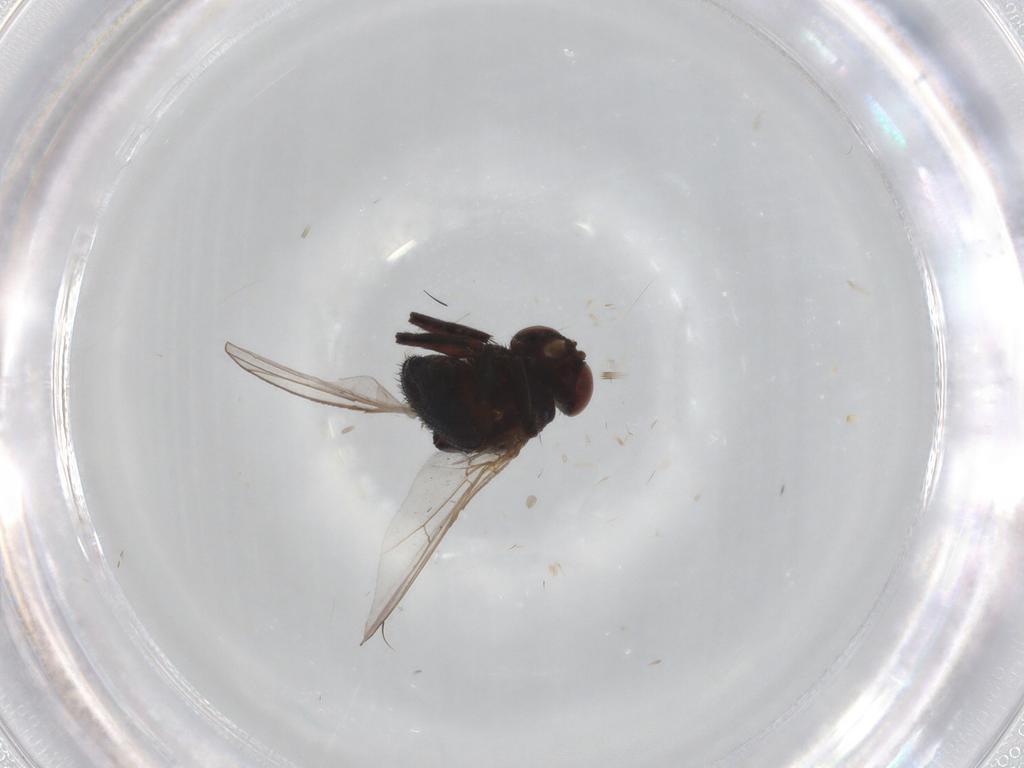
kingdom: Animalia
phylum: Arthropoda
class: Insecta
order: Diptera
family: Agromyzidae
